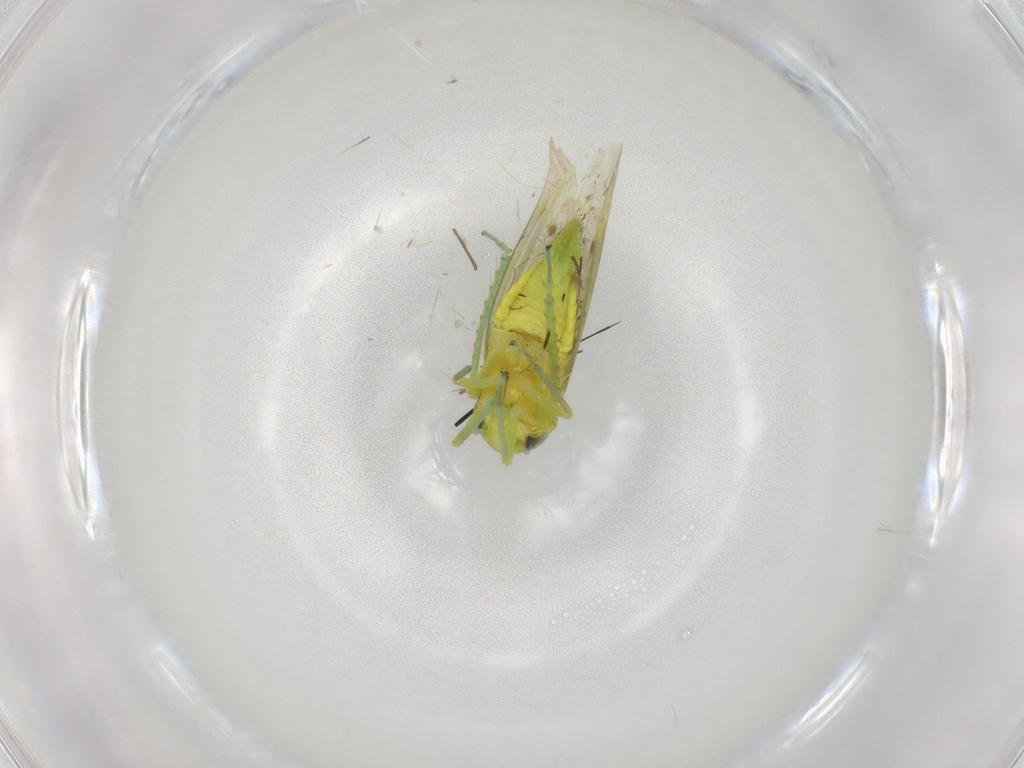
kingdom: Animalia
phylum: Arthropoda
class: Insecta
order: Hemiptera
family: Cicadellidae
